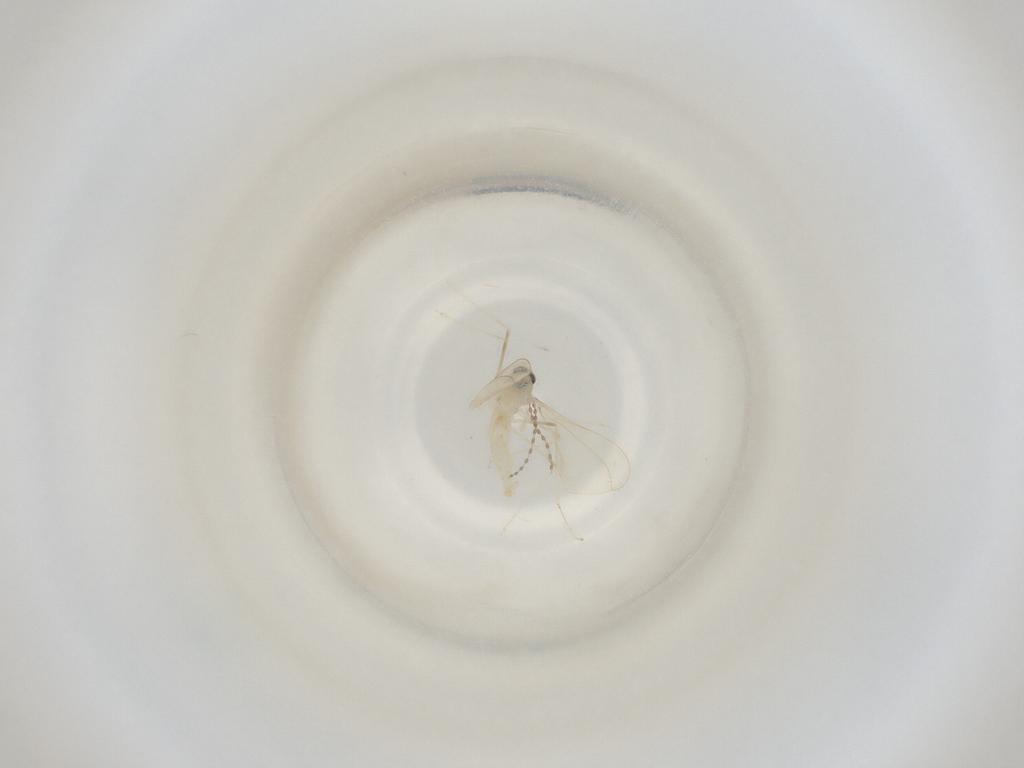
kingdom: Animalia
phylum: Arthropoda
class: Insecta
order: Diptera
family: Cecidomyiidae
